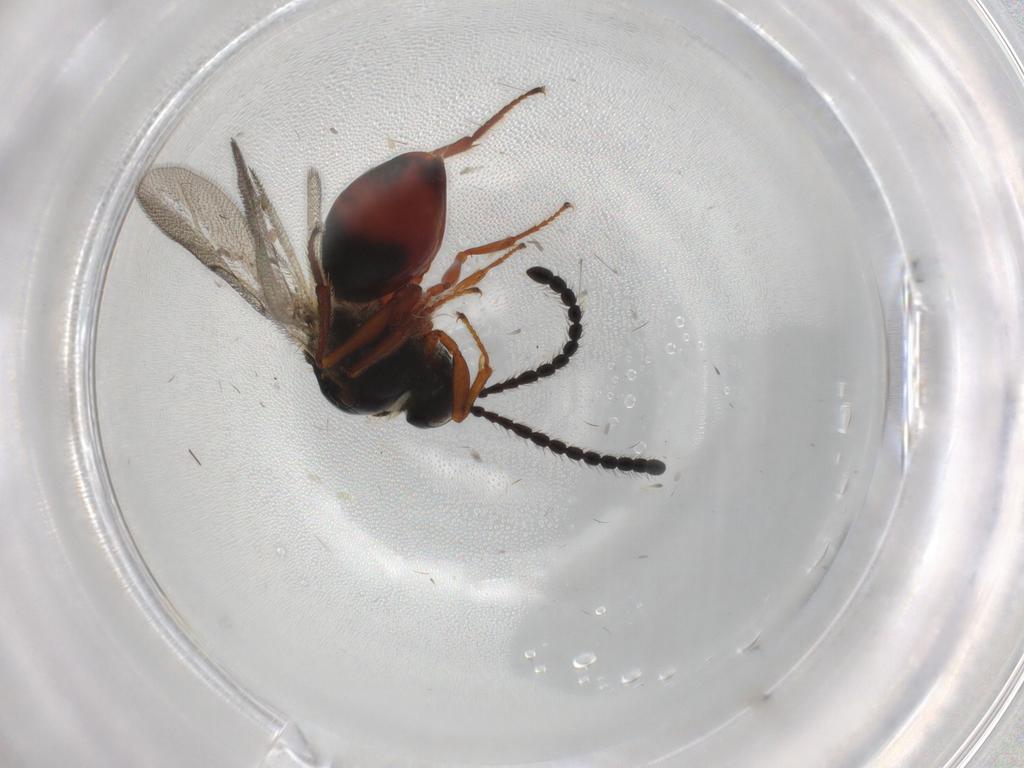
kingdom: Animalia
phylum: Arthropoda
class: Insecta
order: Hymenoptera
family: Figitidae
